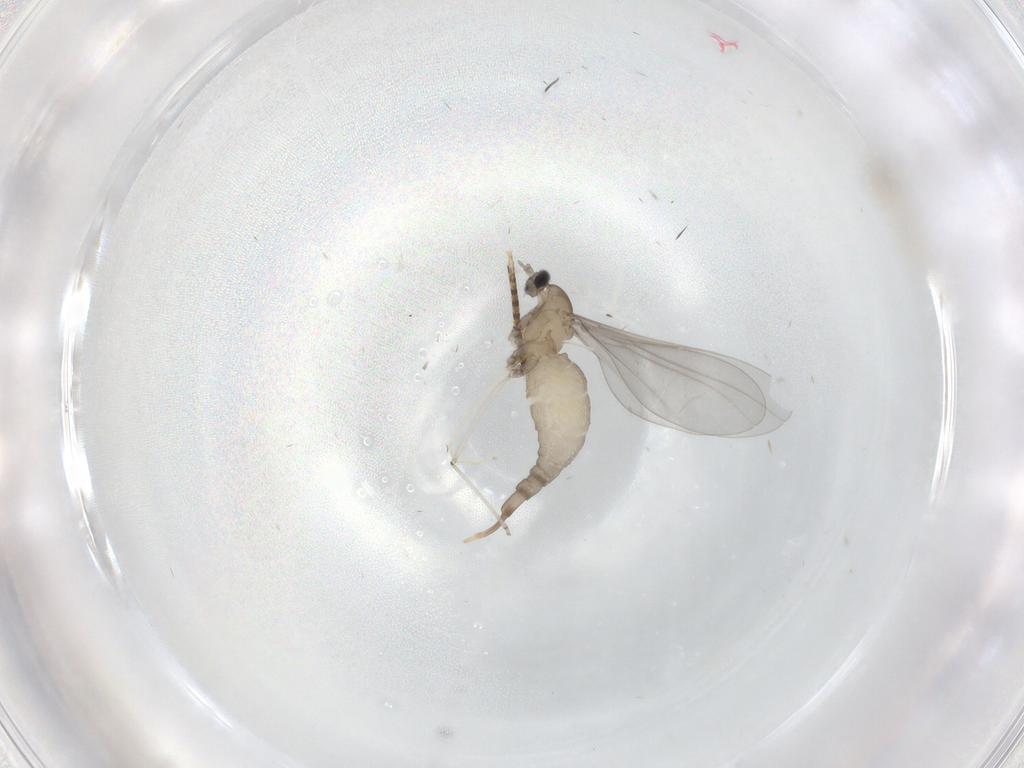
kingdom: Animalia
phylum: Arthropoda
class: Insecta
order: Diptera
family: Cecidomyiidae
